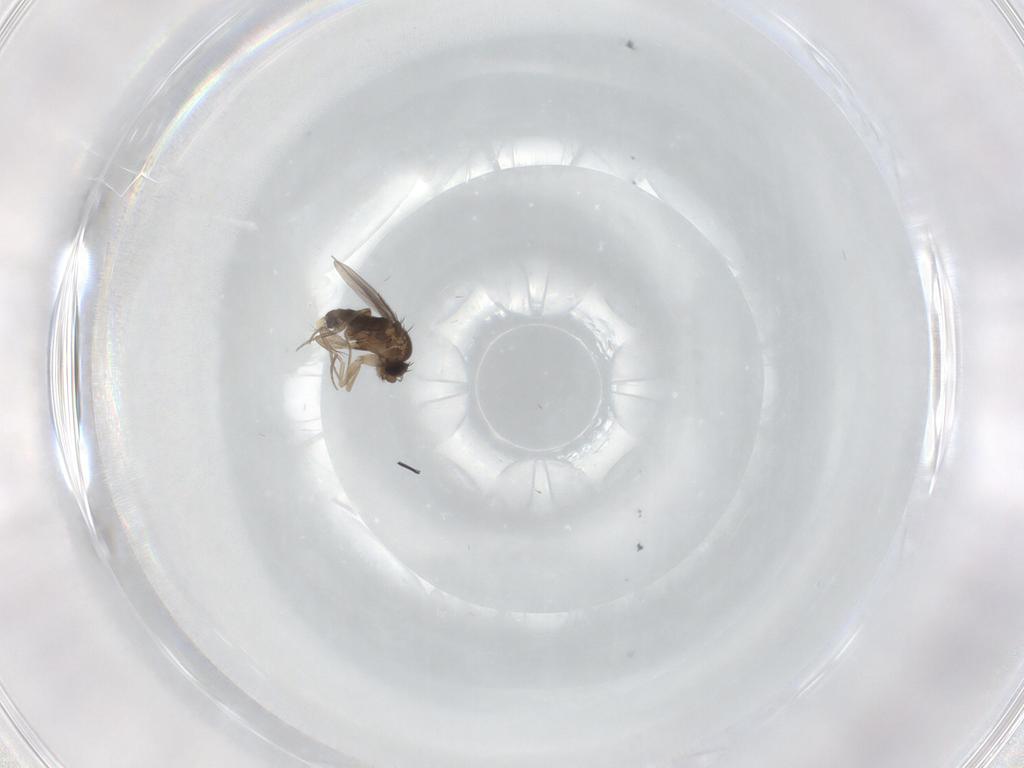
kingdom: Animalia
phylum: Arthropoda
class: Insecta
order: Diptera
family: Phoridae
